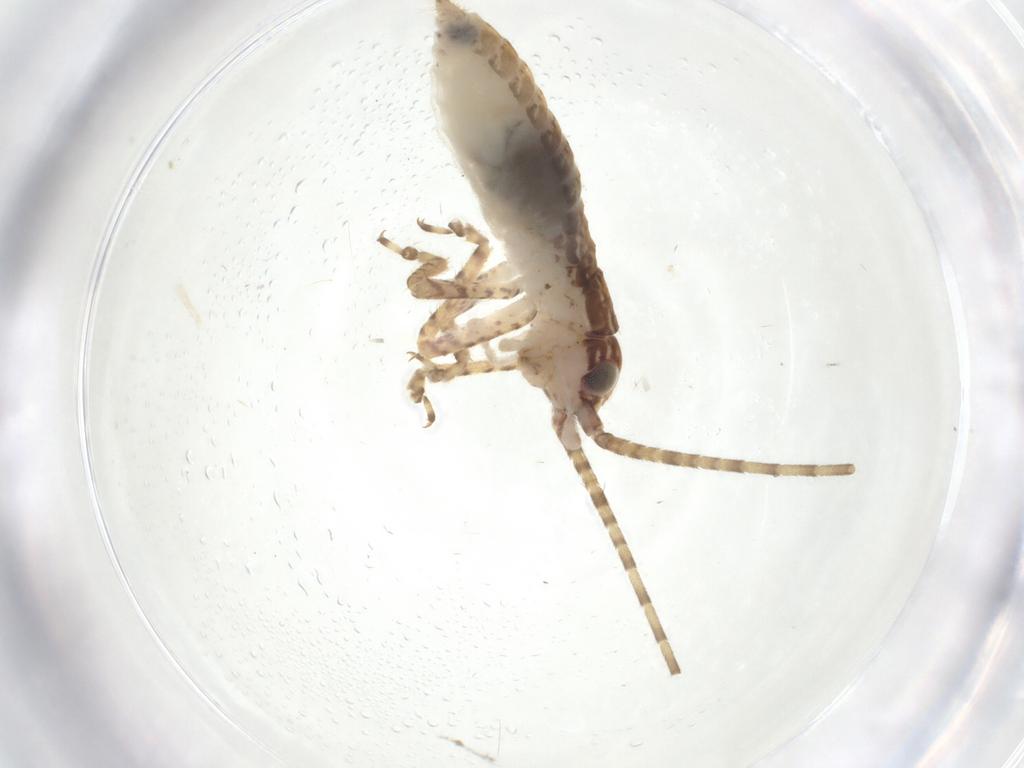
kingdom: Animalia
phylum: Arthropoda
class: Insecta
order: Orthoptera
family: Gryllidae
